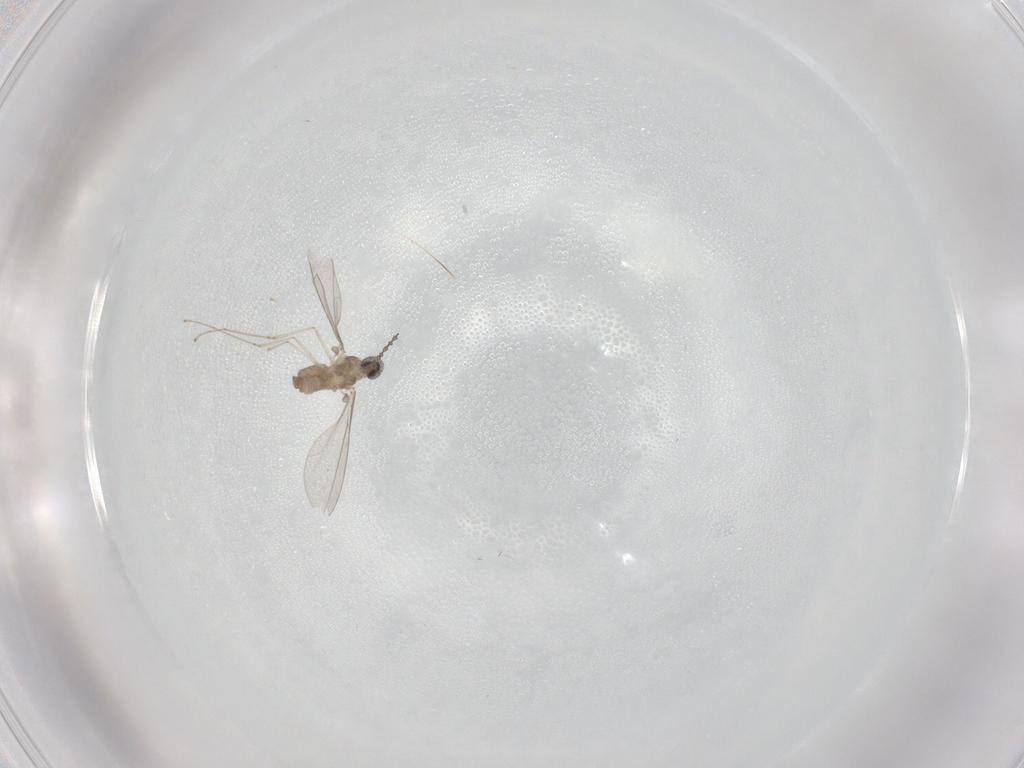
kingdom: Animalia
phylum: Arthropoda
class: Insecta
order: Diptera
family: Cecidomyiidae
